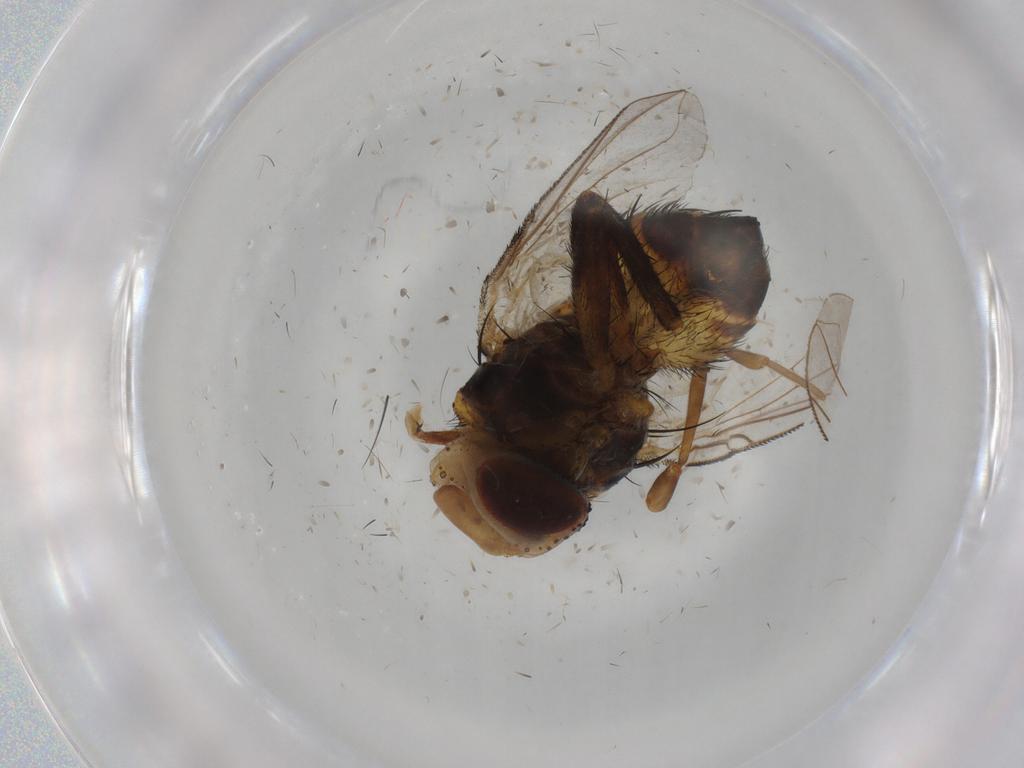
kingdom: Animalia
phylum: Arthropoda
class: Insecta
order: Diptera
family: Glossinidae
